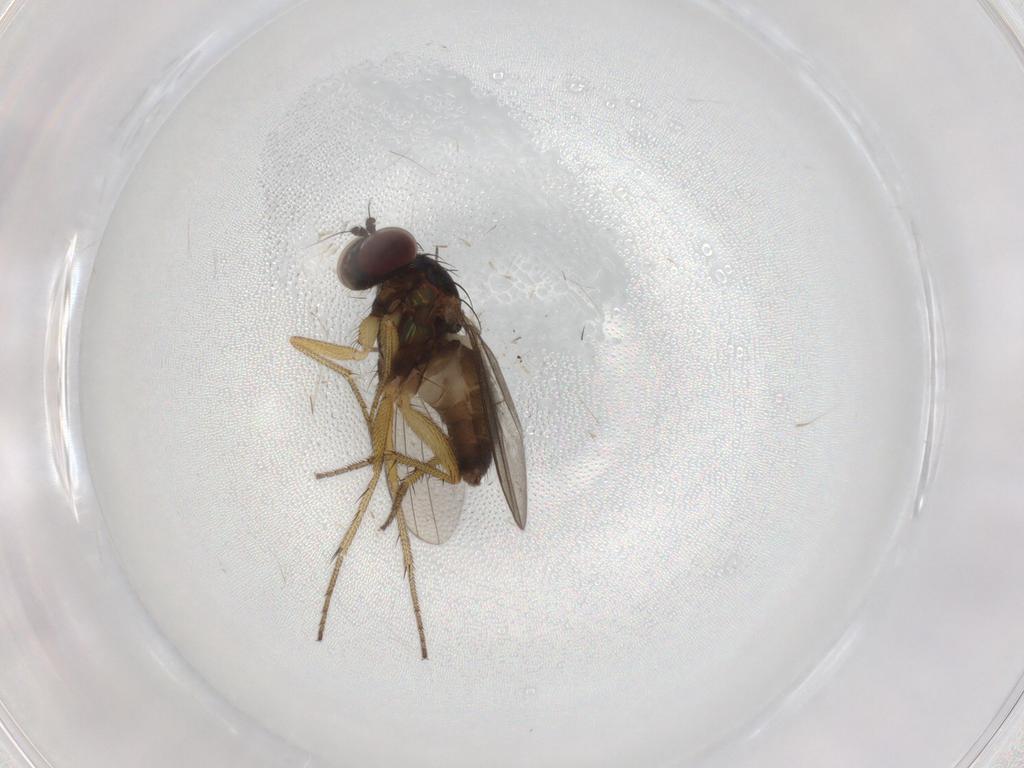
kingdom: Animalia
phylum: Arthropoda
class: Insecta
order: Diptera
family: Dolichopodidae
